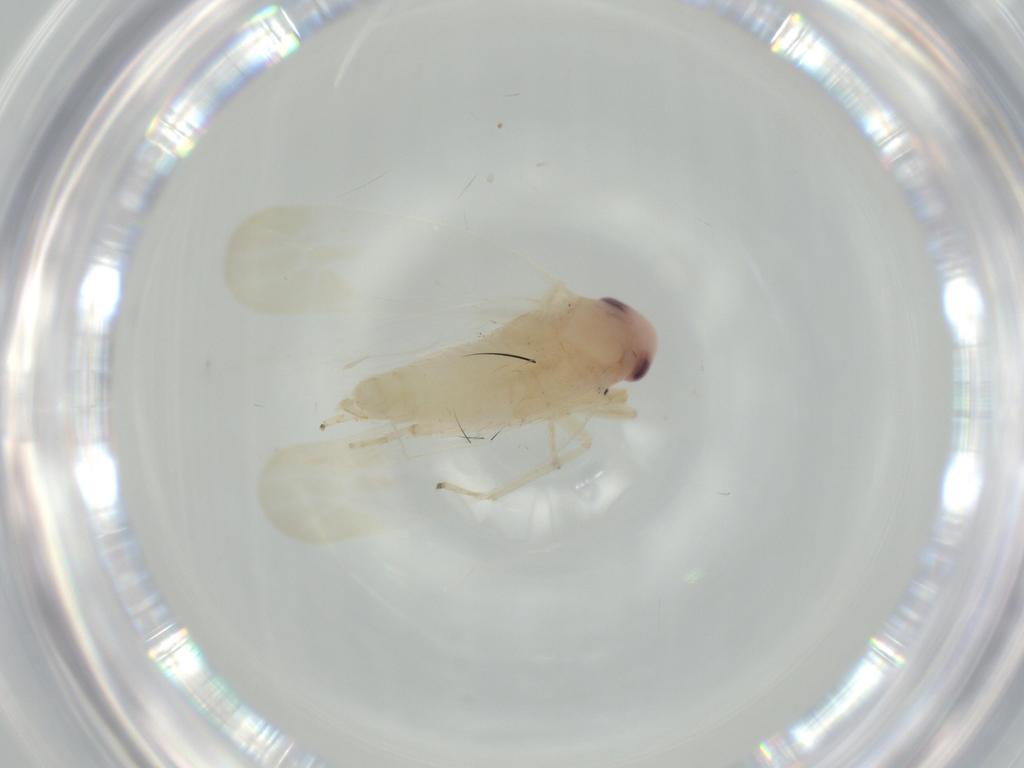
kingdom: Animalia
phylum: Arthropoda
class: Insecta
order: Hemiptera
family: Cicadellidae
